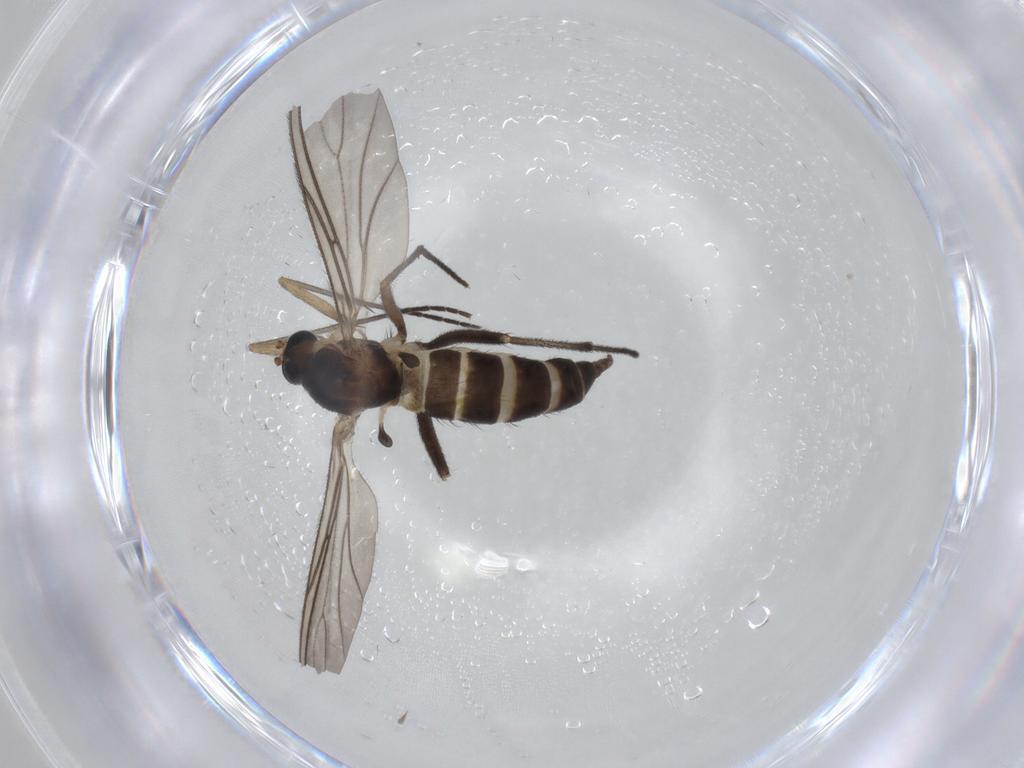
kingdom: Animalia
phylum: Arthropoda
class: Insecta
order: Diptera
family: Sciaridae
